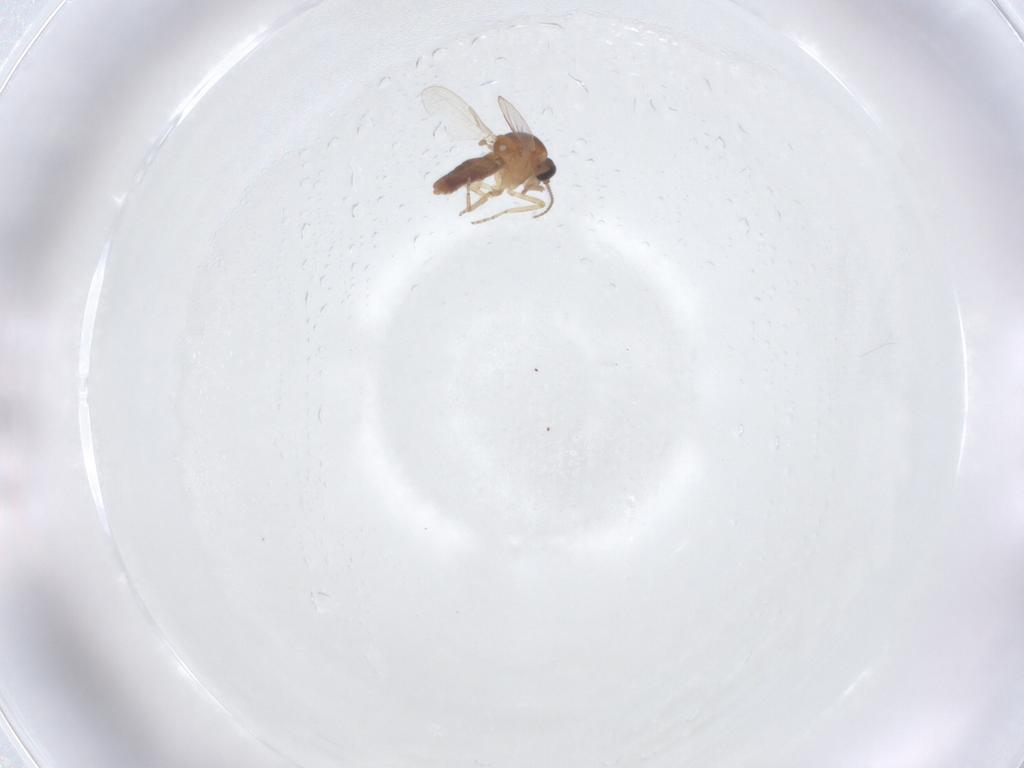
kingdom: Animalia
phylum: Arthropoda
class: Insecta
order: Diptera
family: Ceratopogonidae
